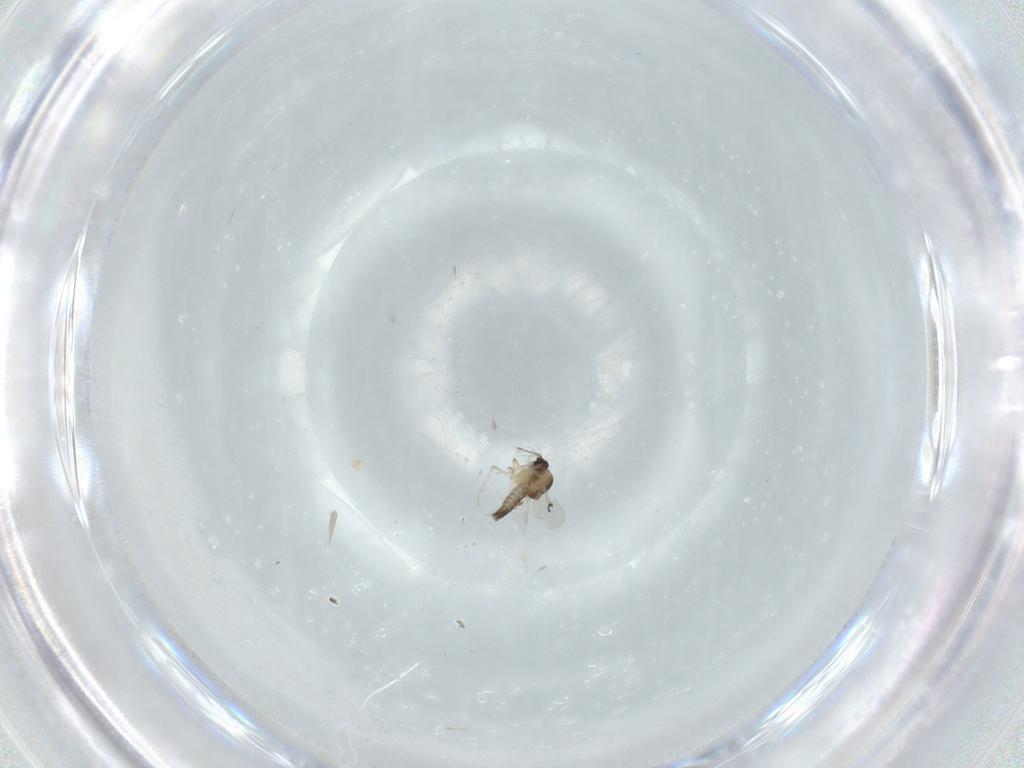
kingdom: Animalia
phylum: Arthropoda
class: Insecta
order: Diptera
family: Ceratopogonidae
